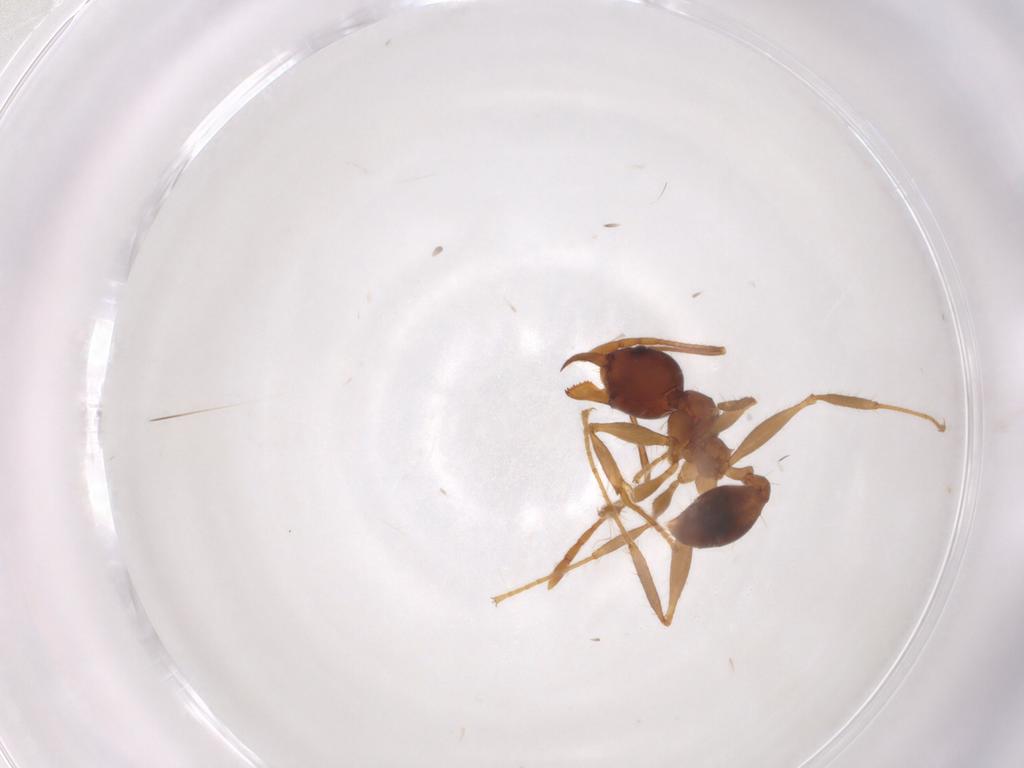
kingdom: Animalia
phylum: Arthropoda
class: Insecta
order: Hymenoptera
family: Formicidae
